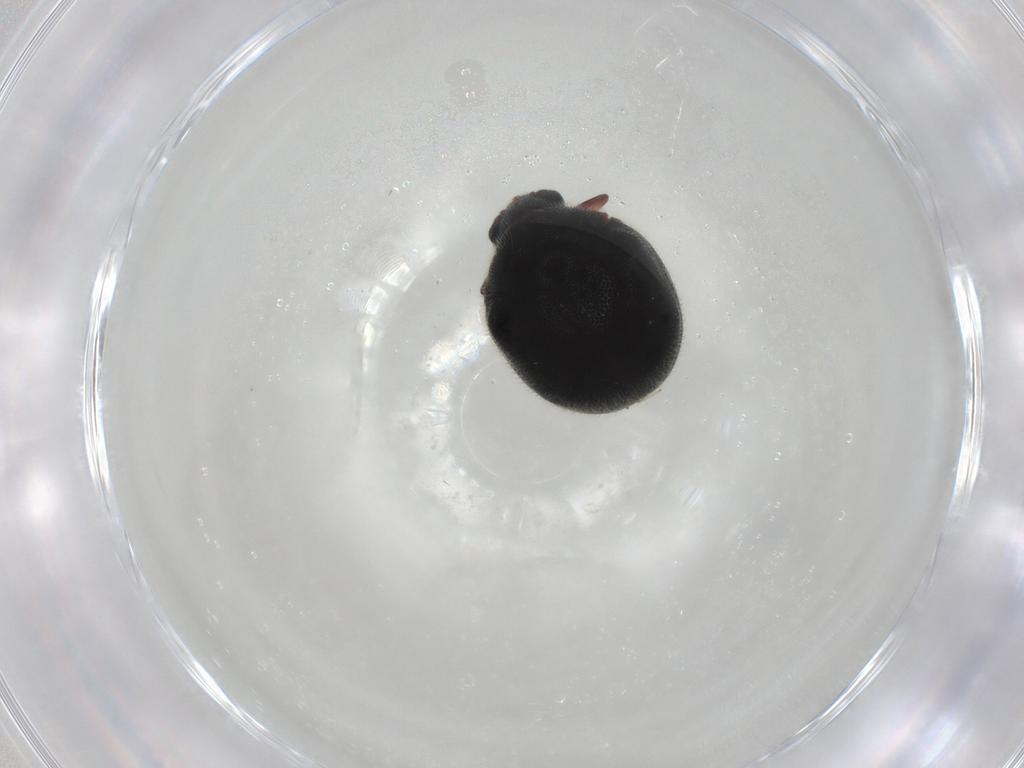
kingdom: Animalia
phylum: Arthropoda
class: Insecta
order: Coleoptera
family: Ptinidae
